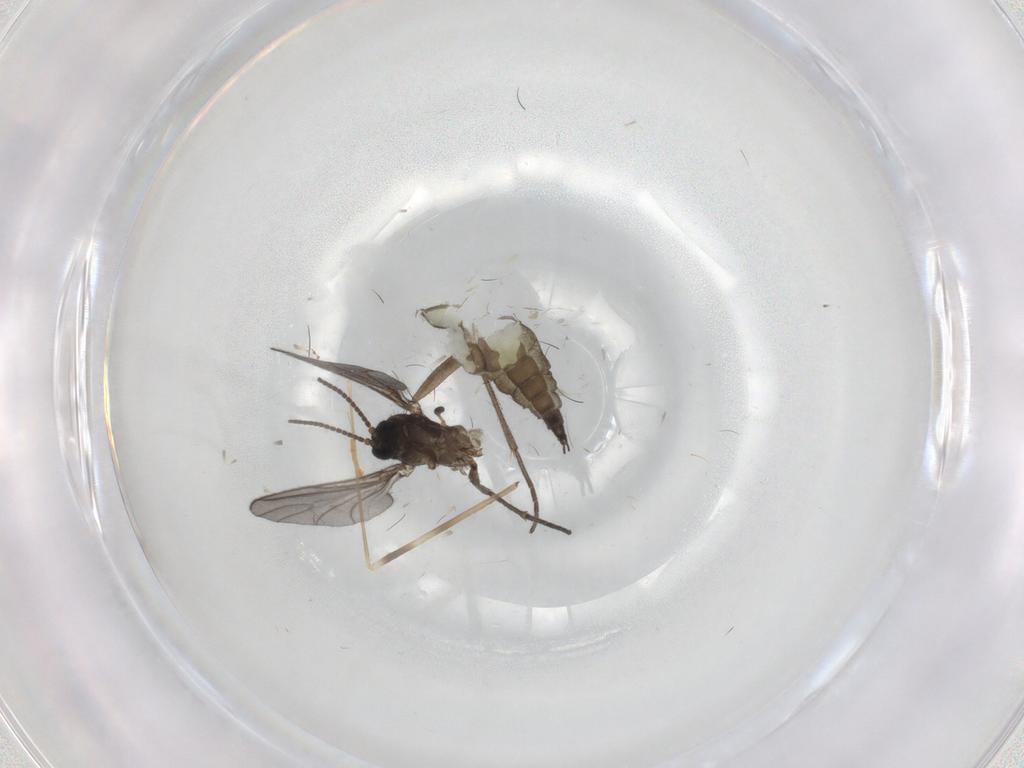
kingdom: Animalia
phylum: Arthropoda
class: Insecta
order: Diptera
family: Sciaridae
